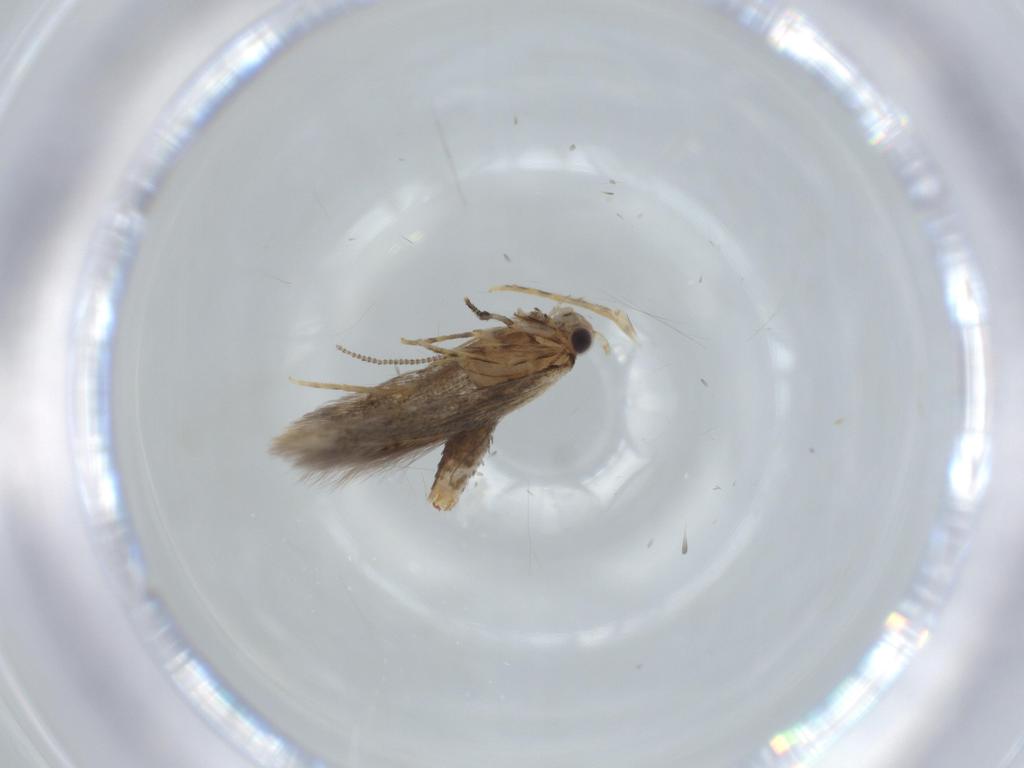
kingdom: Animalia
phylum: Arthropoda
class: Insecta
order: Lepidoptera
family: Tineidae
